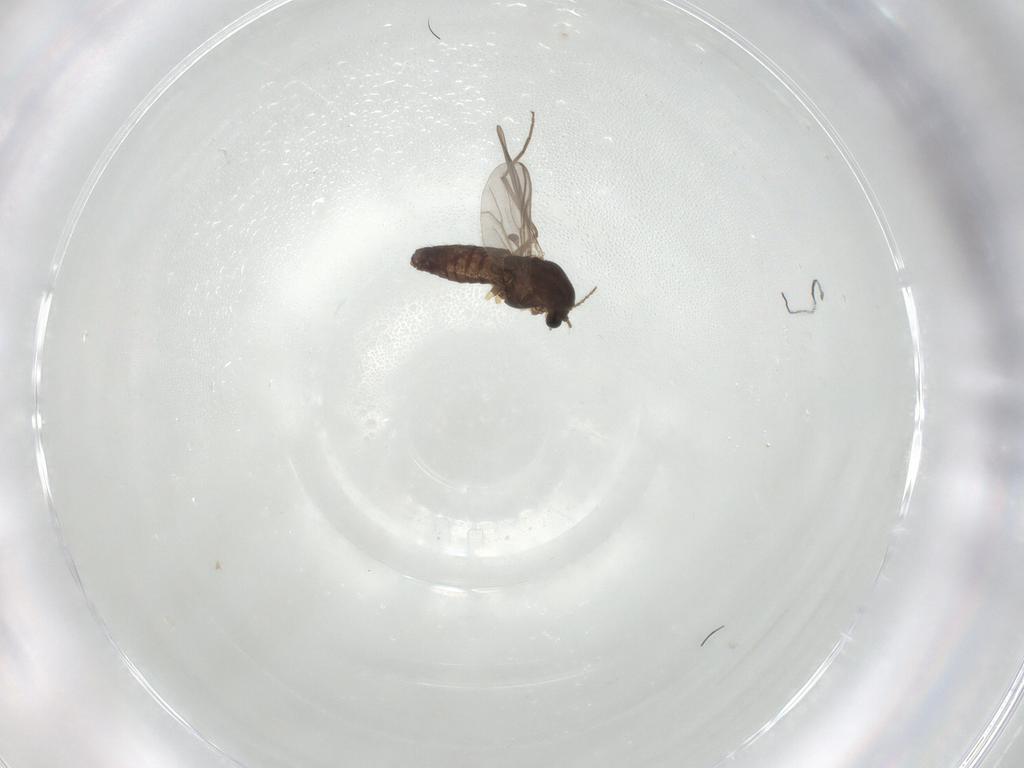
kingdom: Animalia
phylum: Arthropoda
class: Insecta
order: Diptera
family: Chironomidae
